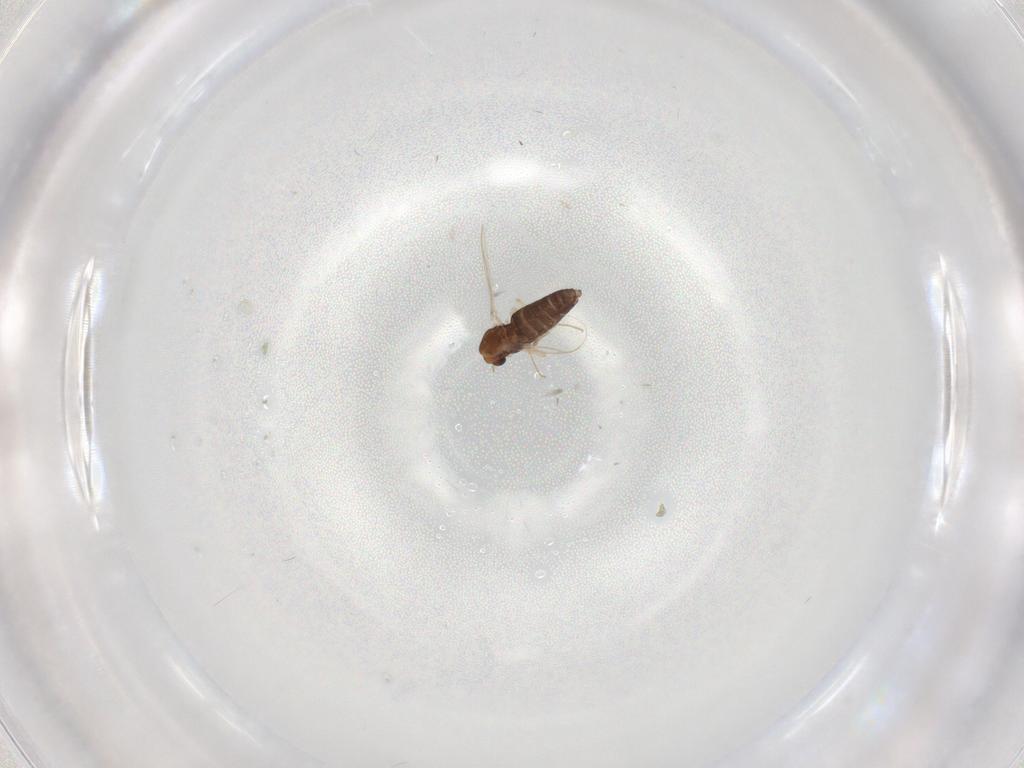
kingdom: Animalia
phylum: Arthropoda
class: Insecta
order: Diptera
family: Chironomidae
